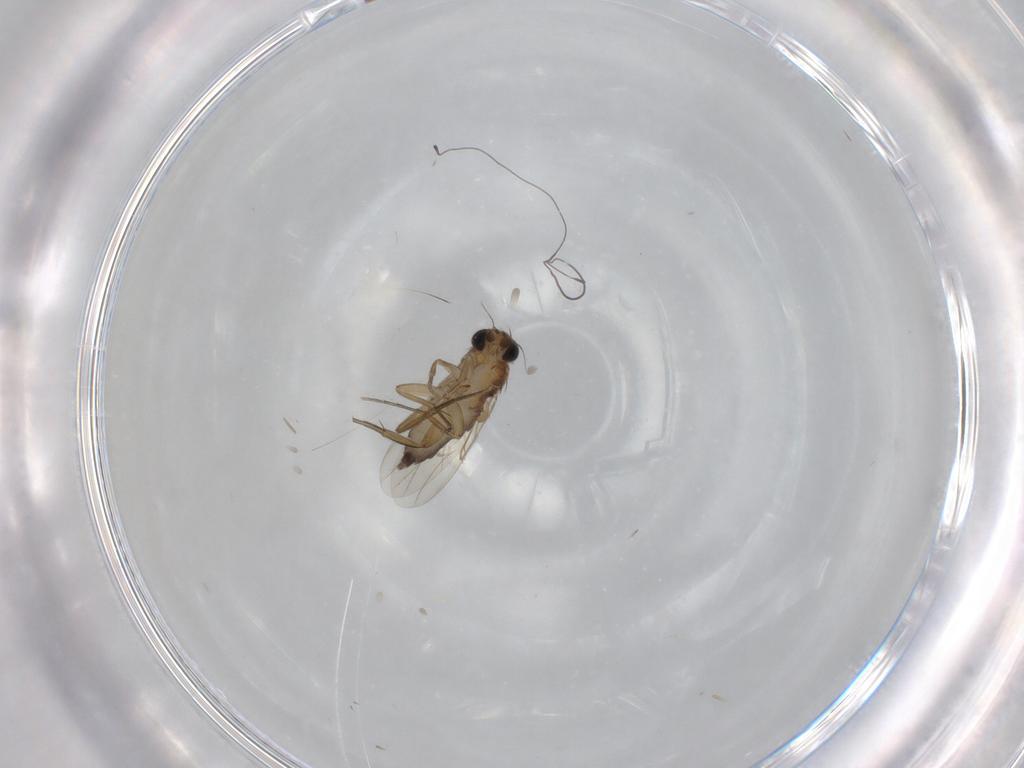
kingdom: Animalia
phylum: Arthropoda
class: Insecta
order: Diptera
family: Phoridae
